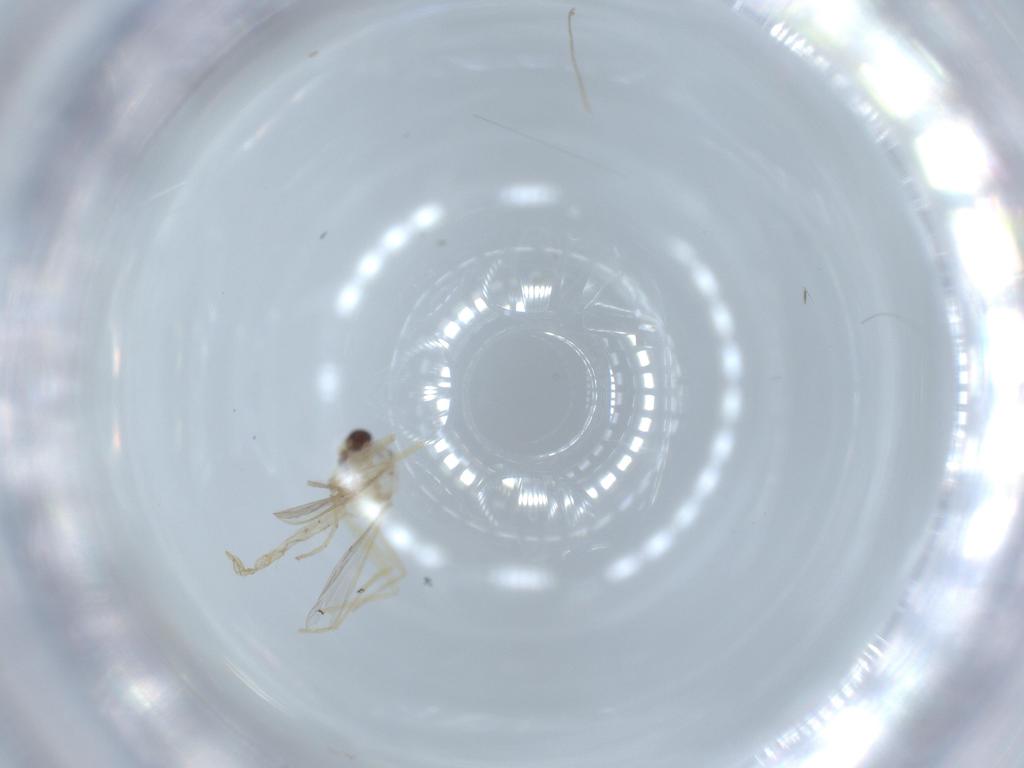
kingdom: Animalia
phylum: Arthropoda
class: Insecta
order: Diptera
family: Chironomidae
